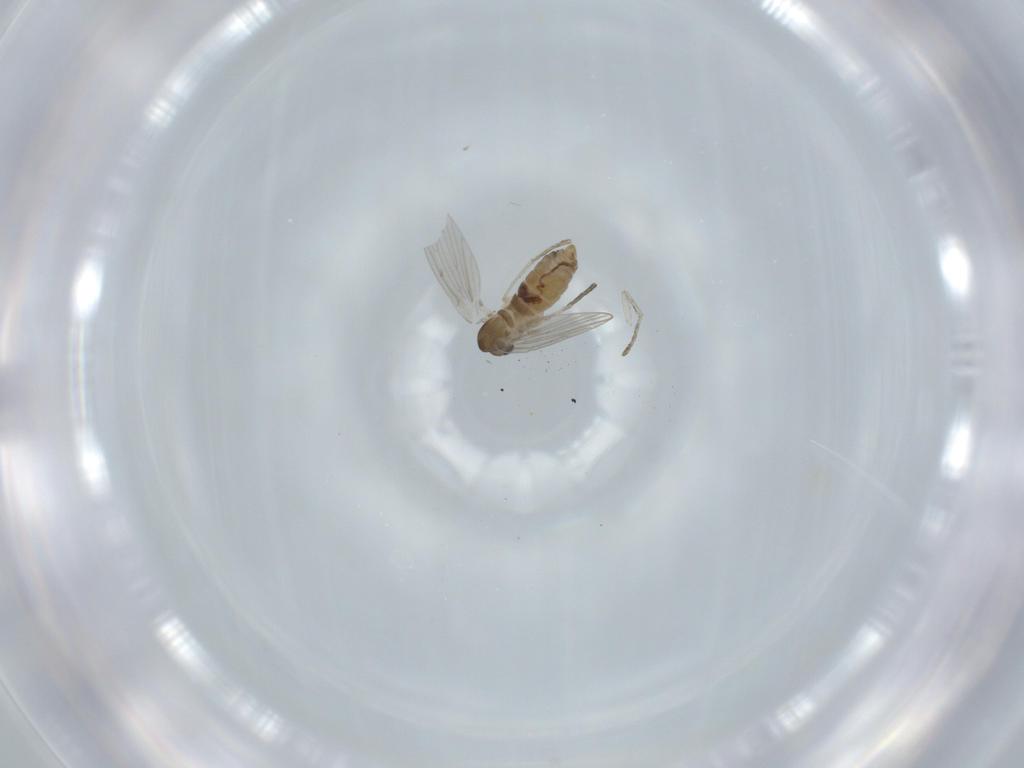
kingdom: Animalia
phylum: Arthropoda
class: Insecta
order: Diptera
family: Psychodidae
